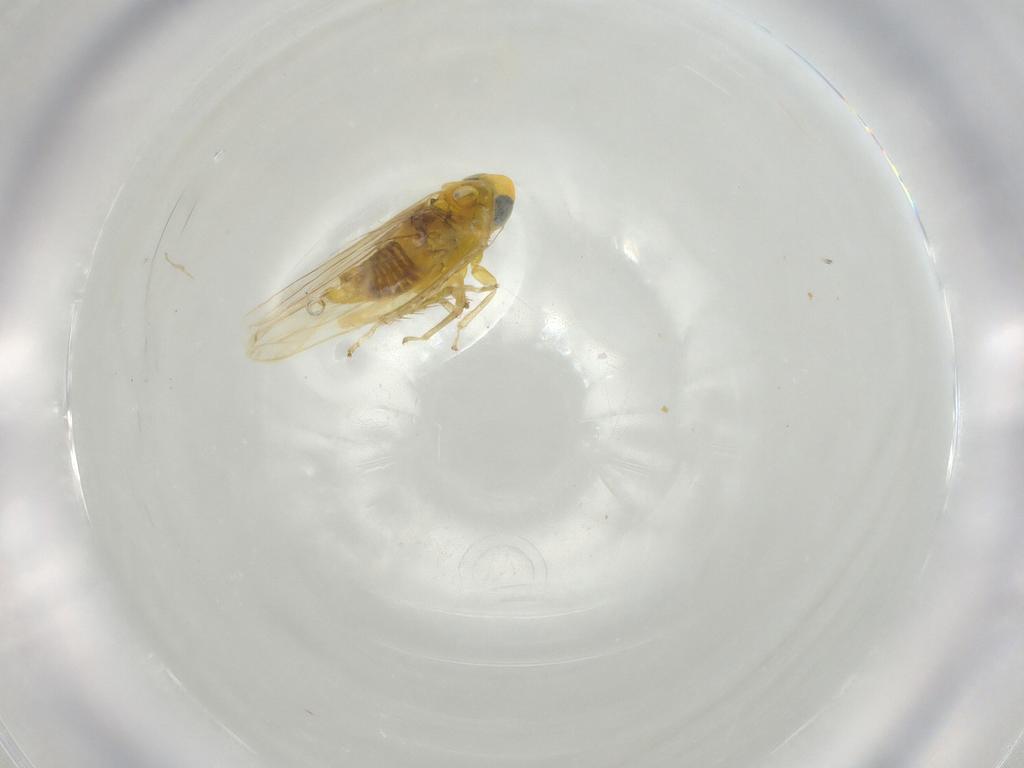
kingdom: Animalia
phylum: Arthropoda
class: Insecta
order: Hemiptera
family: Cicadellidae
